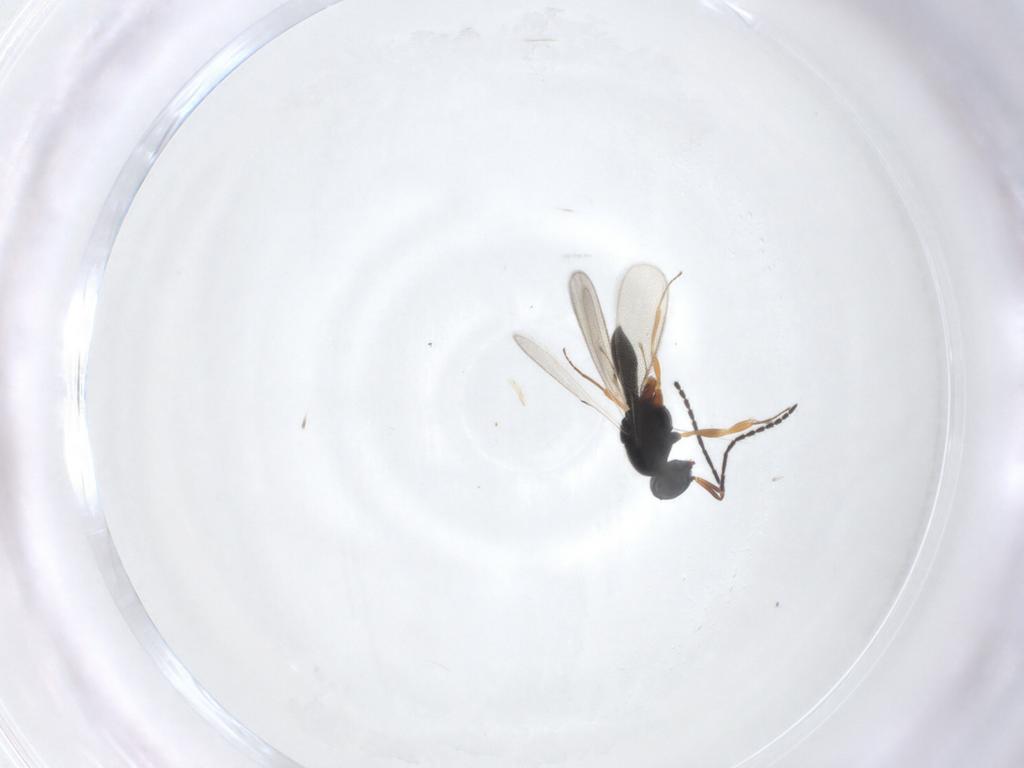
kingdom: Animalia
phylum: Arthropoda
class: Insecta
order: Hymenoptera
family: Scelionidae
